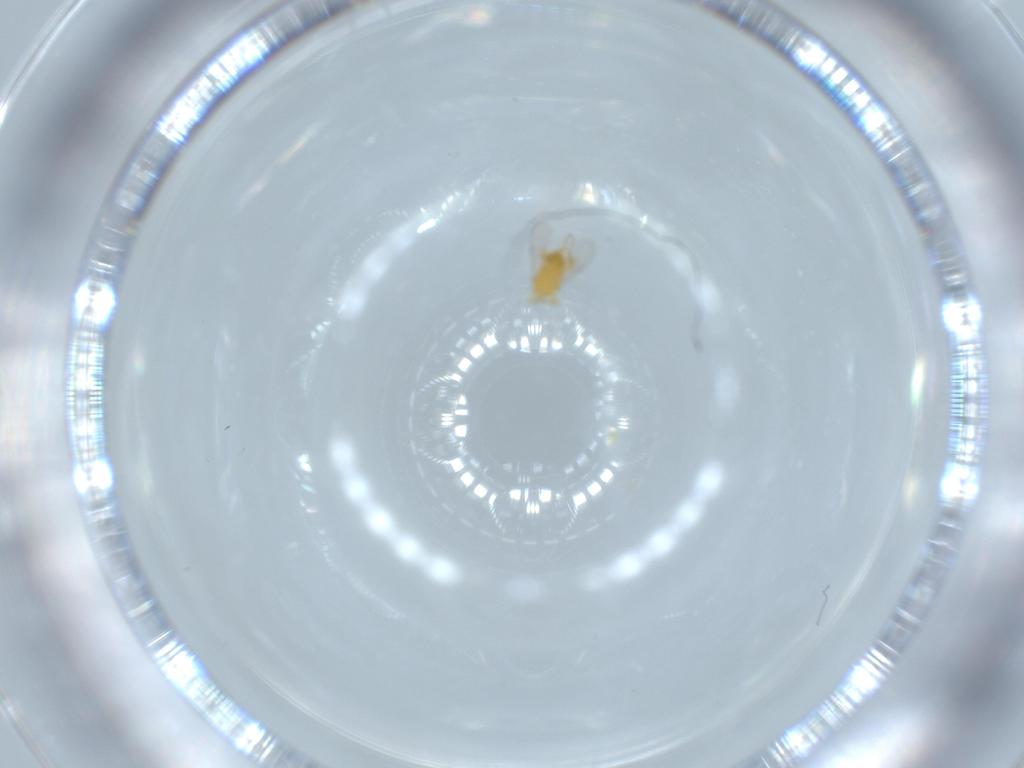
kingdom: Animalia
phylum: Arthropoda
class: Insecta
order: Hymenoptera
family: Encyrtidae
